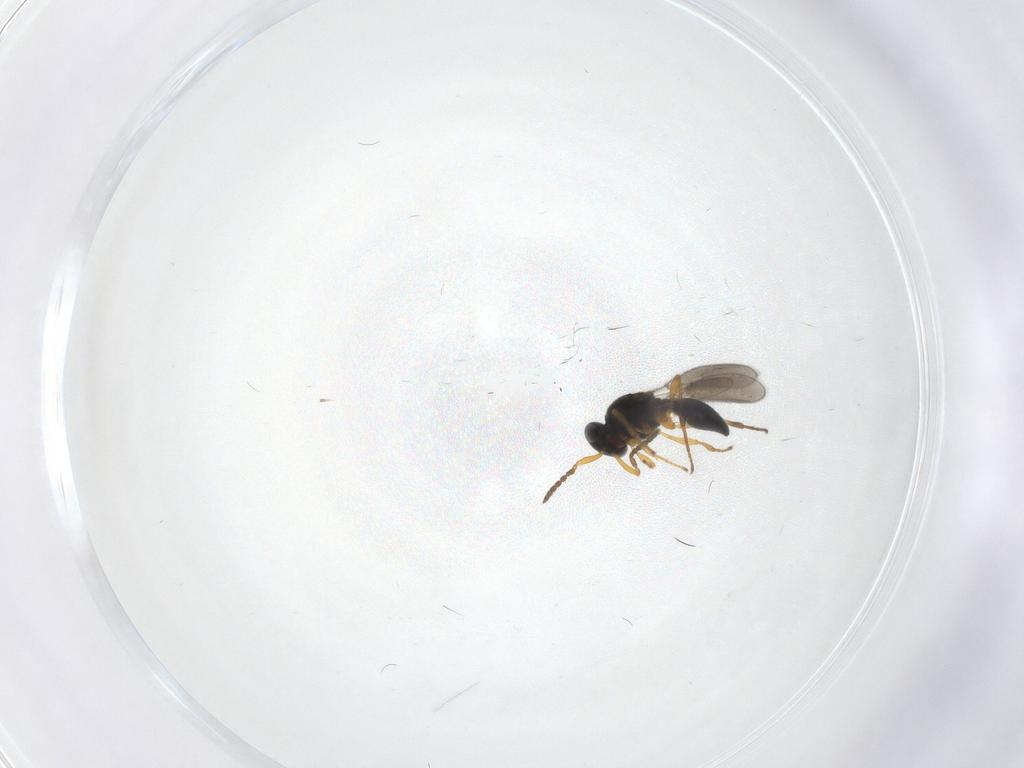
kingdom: Animalia
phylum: Arthropoda
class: Insecta
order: Hymenoptera
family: Platygastridae
